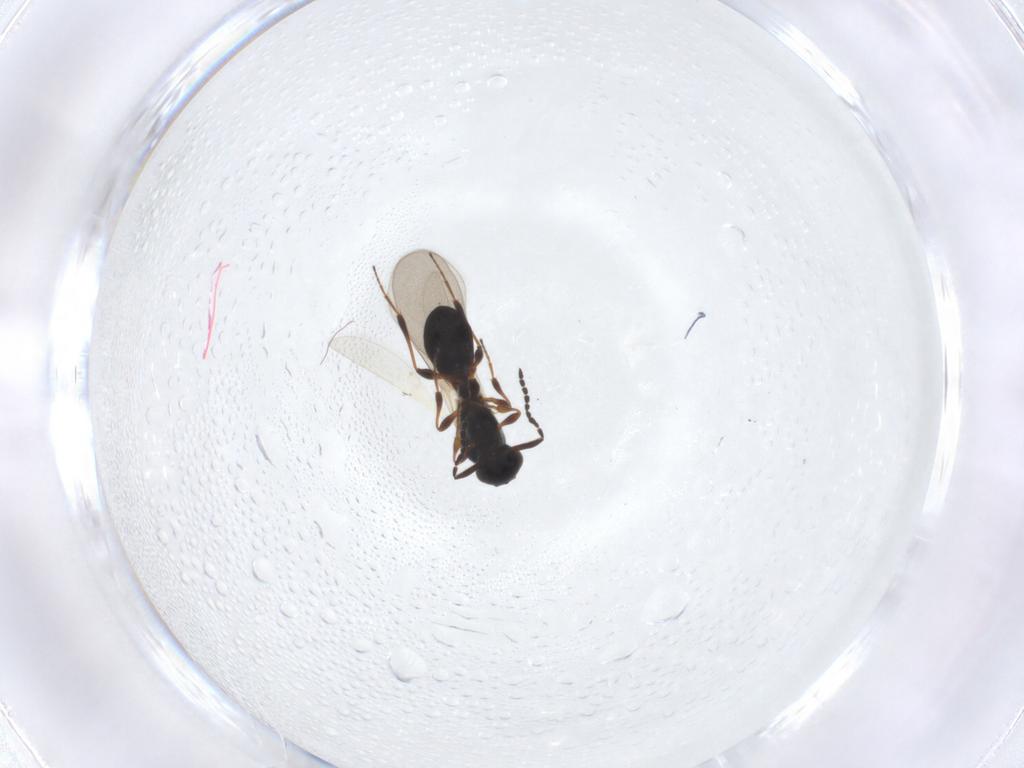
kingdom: Animalia
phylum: Arthropoda
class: Insecta
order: Hymenoptera
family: Platygastridae
